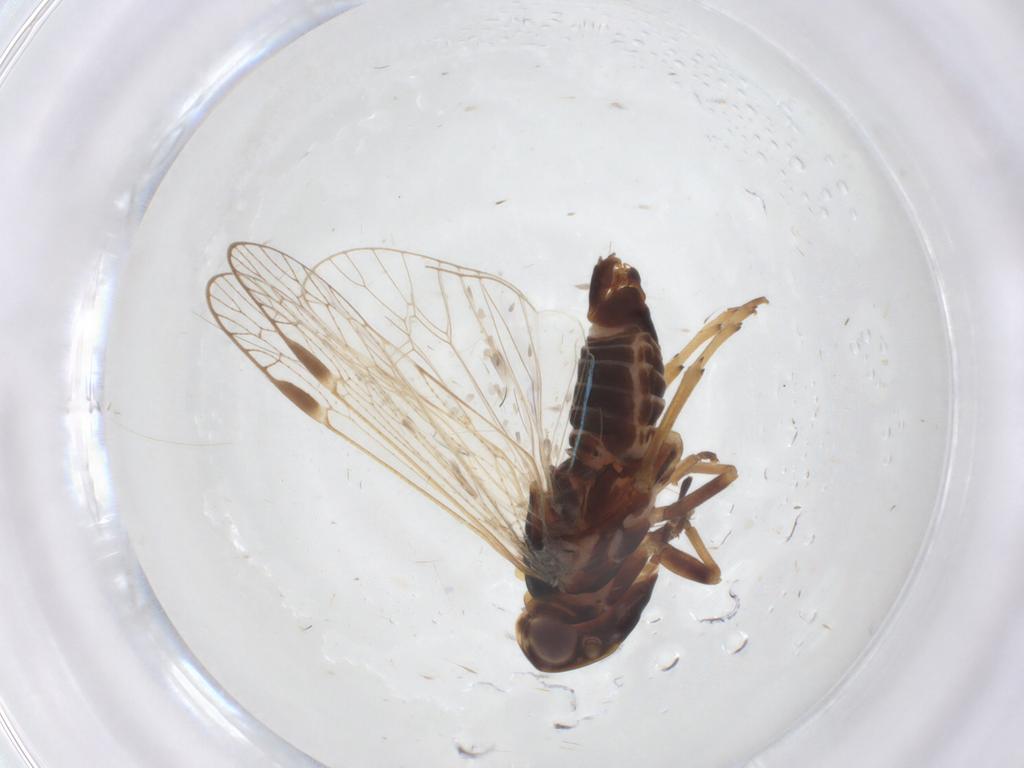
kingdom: Animalia
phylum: Arthropoda
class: Insecta
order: Hemiptera
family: Cixiidae
